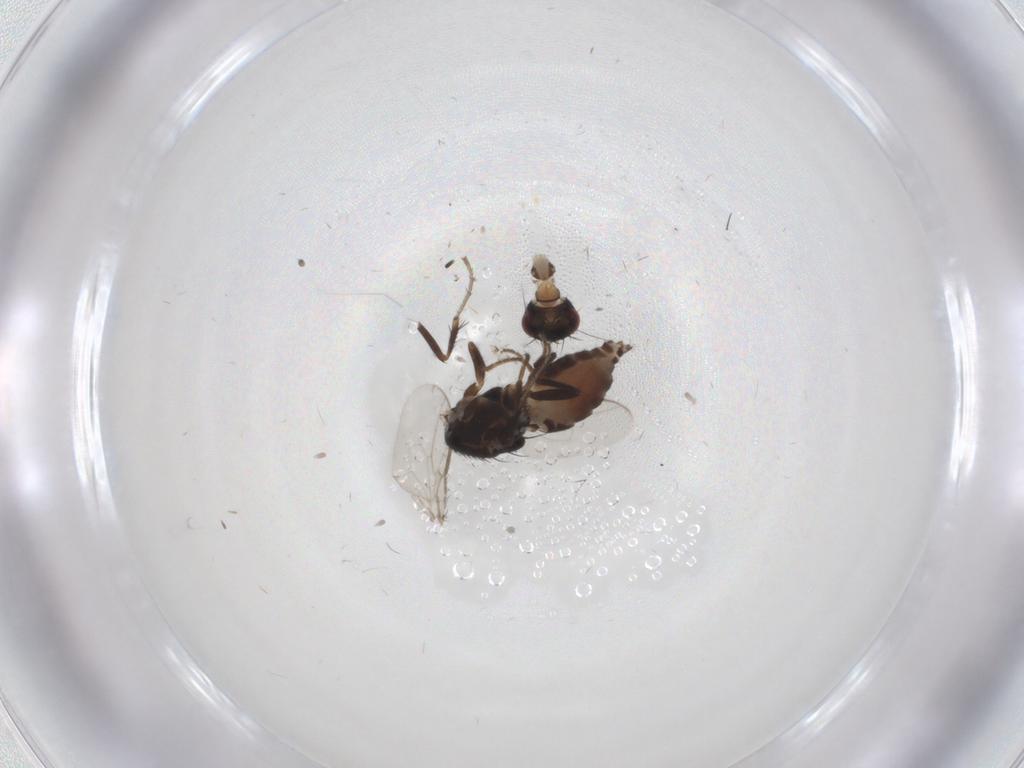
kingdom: Animalia
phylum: Arthropoda
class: Insecta
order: Diptera
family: Sphaeroceridae
